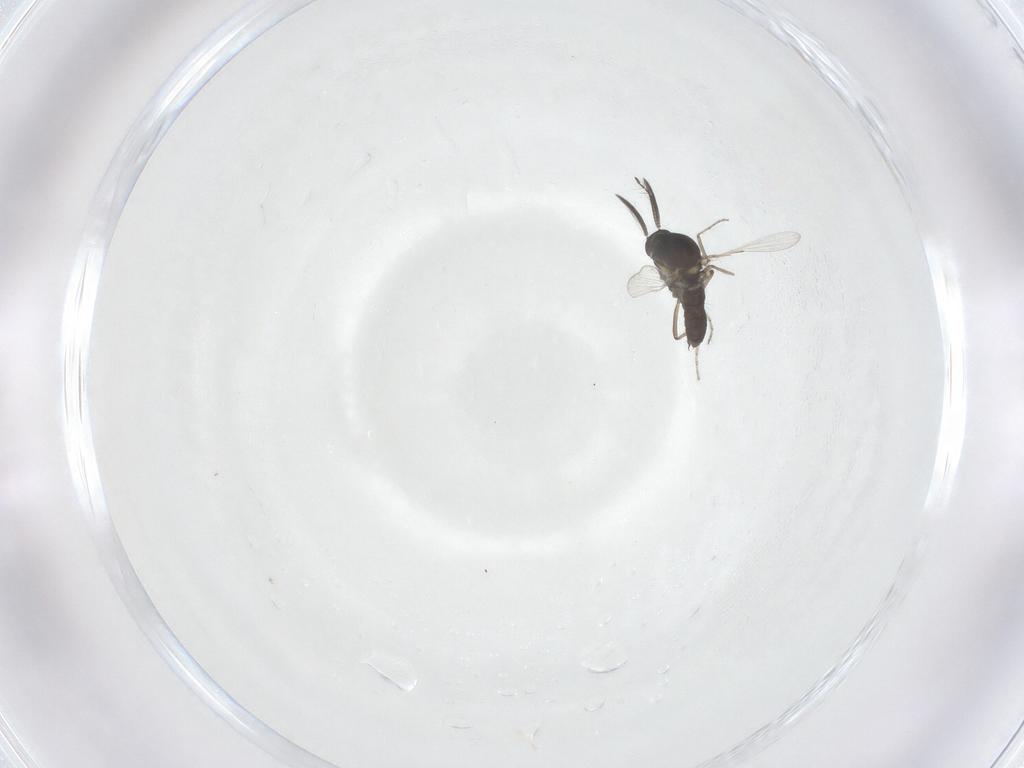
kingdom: Animalia
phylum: Arthropoda
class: Insecta
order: Diptera
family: Ceratopogonidae
